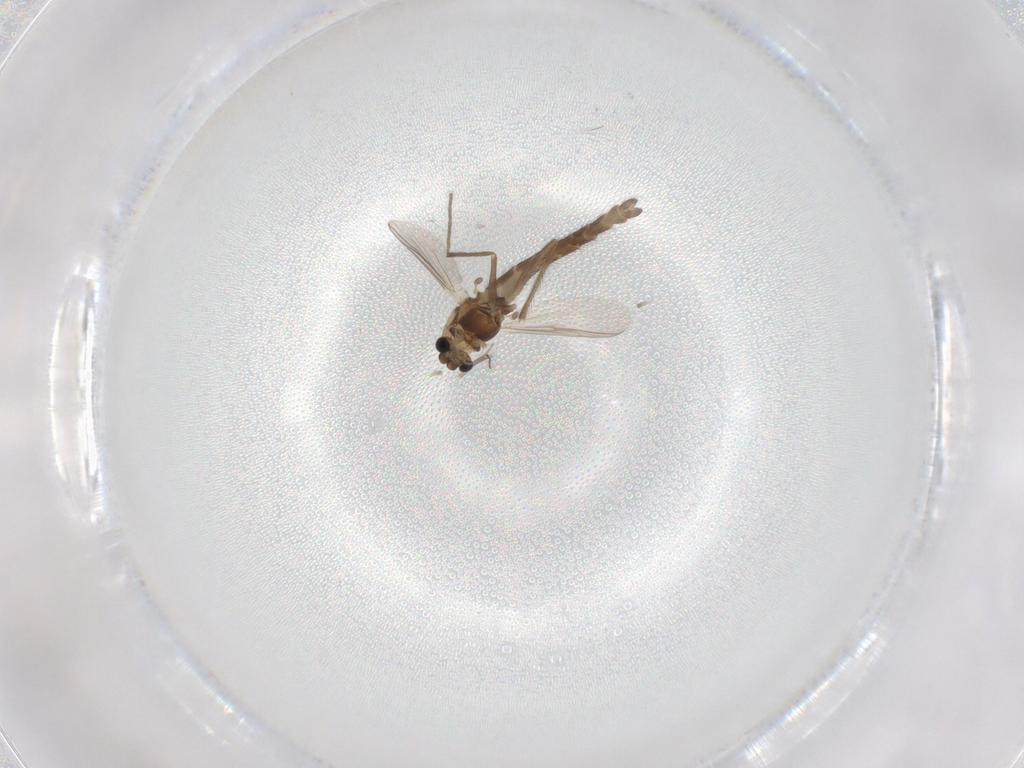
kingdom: Animalia
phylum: Arthropoda
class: Insecta
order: Diptera
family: Chironomidae
